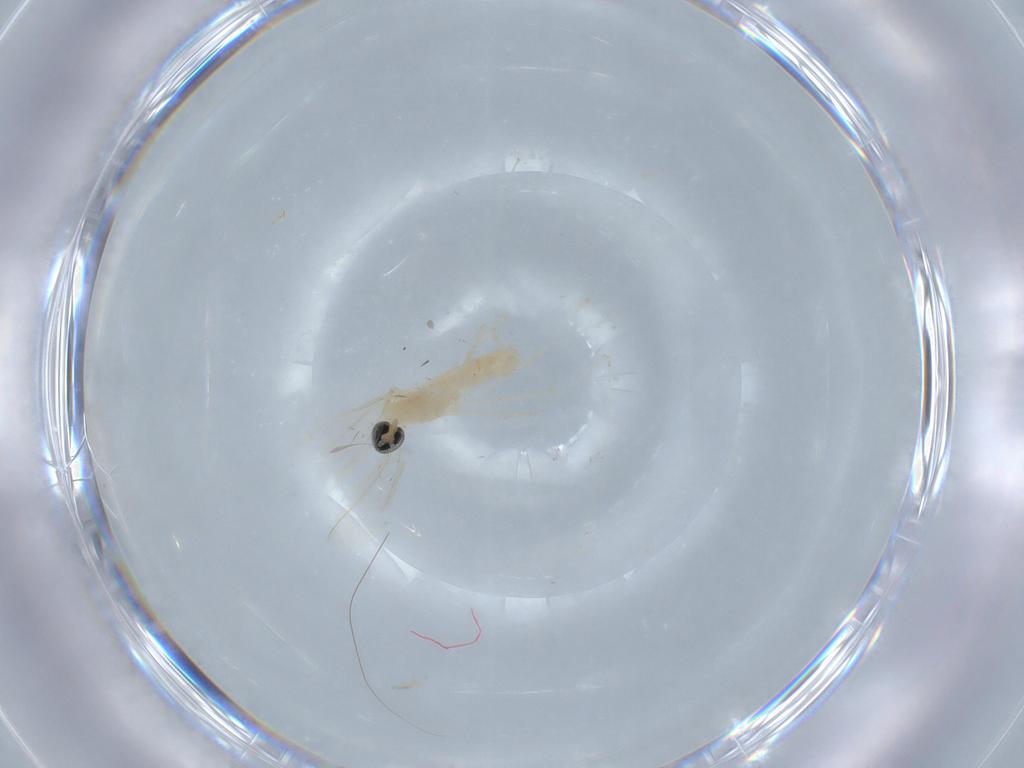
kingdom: Animalia
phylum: Arthropoda
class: Insecta
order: Diptera
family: Cecidomyiidae
